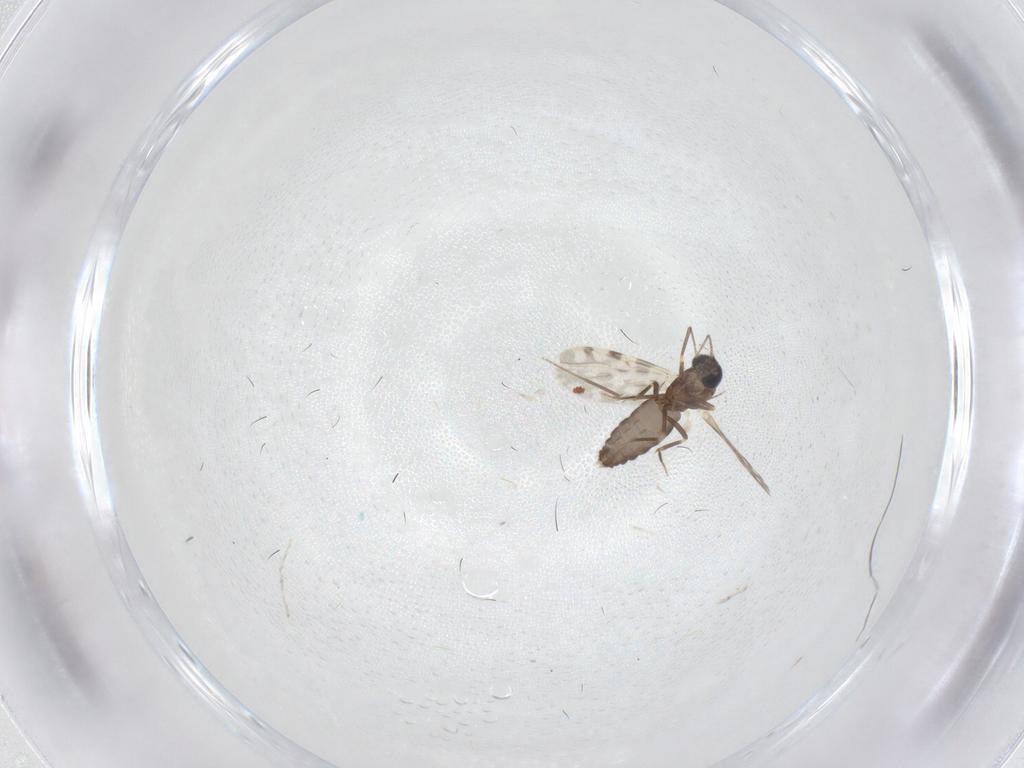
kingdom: Animalia
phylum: Arthropoda
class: Insecta
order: Diptera
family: Ceratopogonidae
